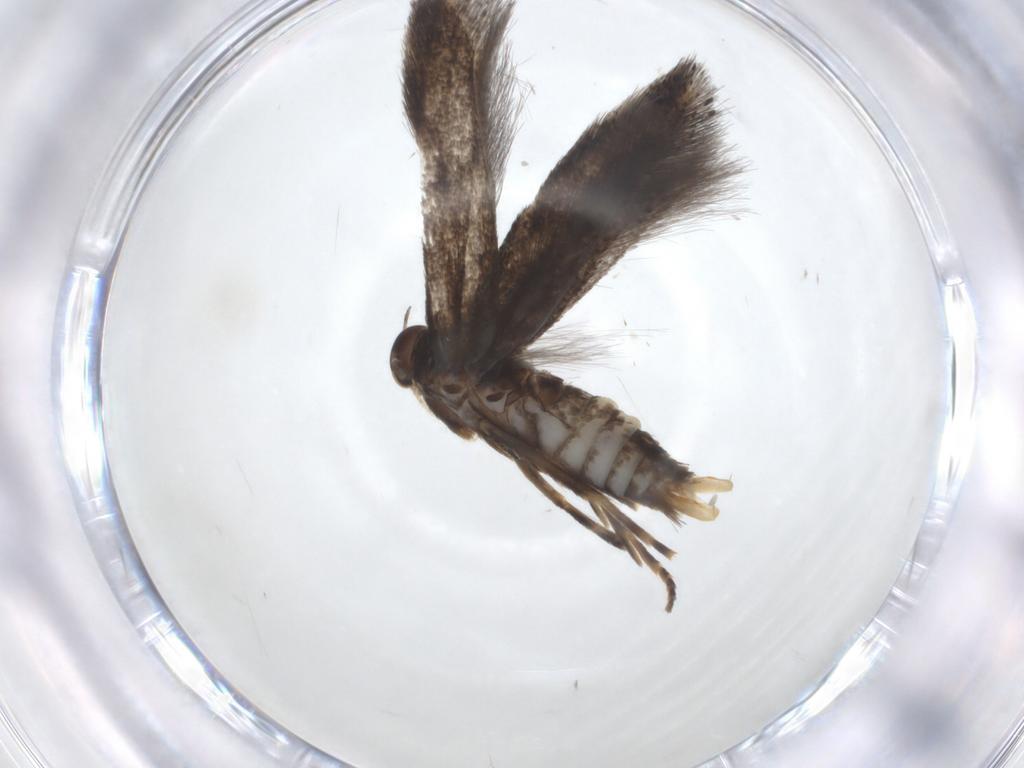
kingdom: Animalia
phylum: Arthropoda
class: Insecta
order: Lepidoptera
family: Elachistidae
